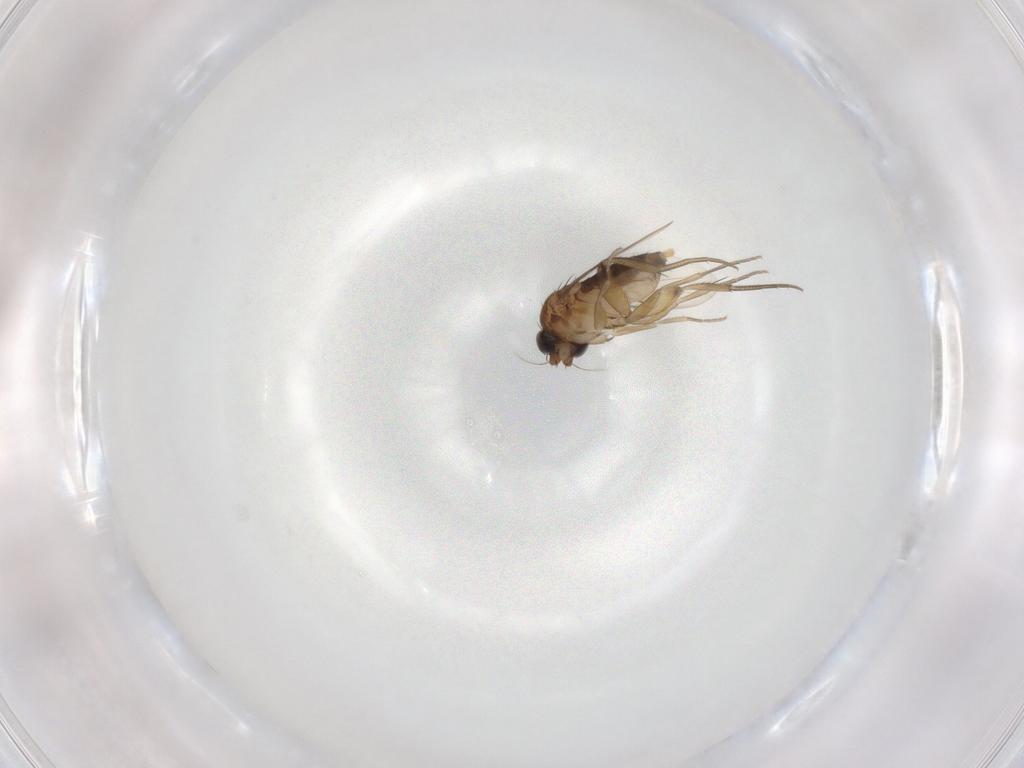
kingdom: Animalia
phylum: Arthropoda
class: Insecta
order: Diptera
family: Phoridae
